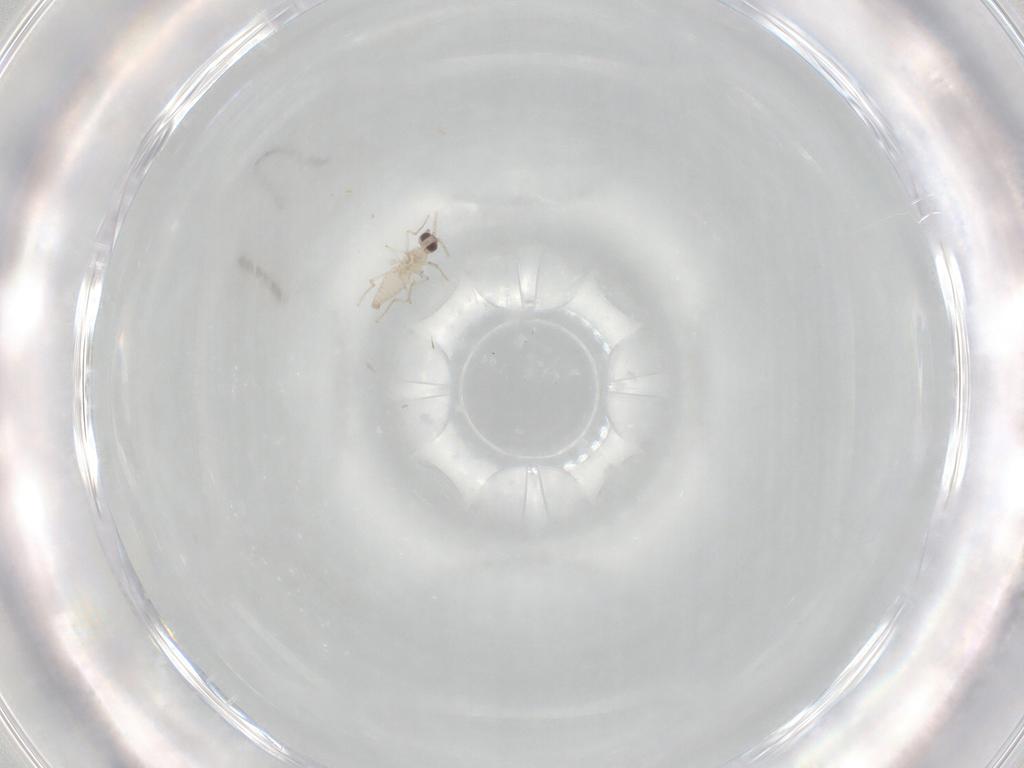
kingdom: Animalia
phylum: Arthropoda
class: Insecta
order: Diptera
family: Cecidomyiidae
